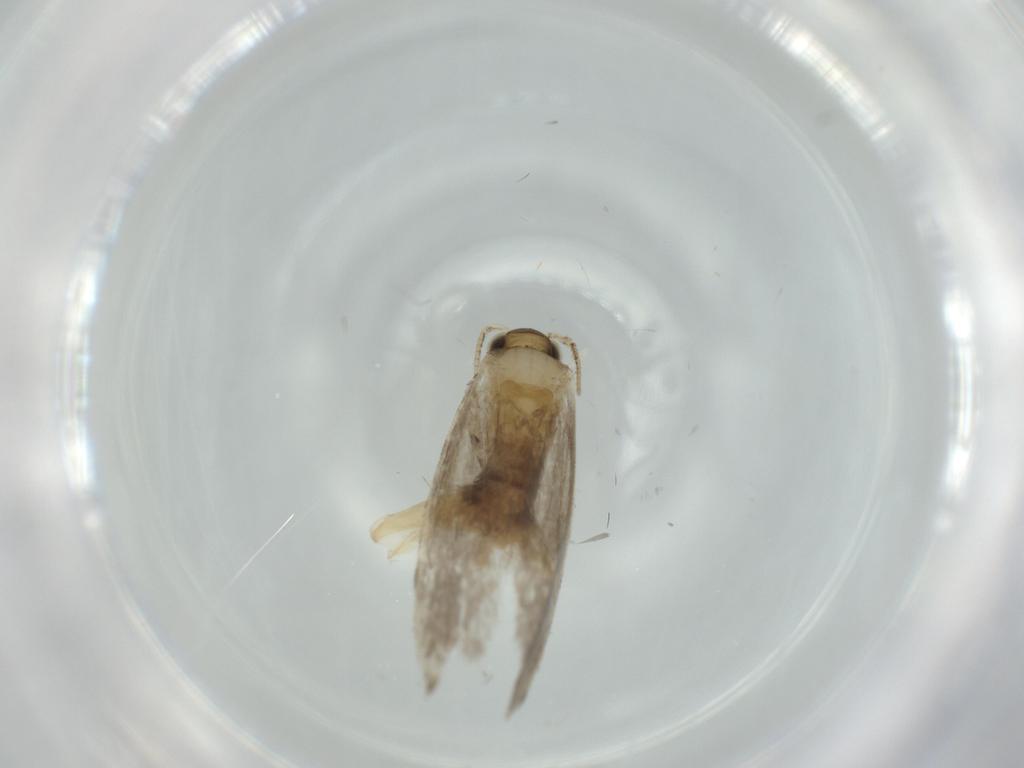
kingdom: Animalia
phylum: Arthropoda
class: Insecta
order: Lepidoptera
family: Tineidae
